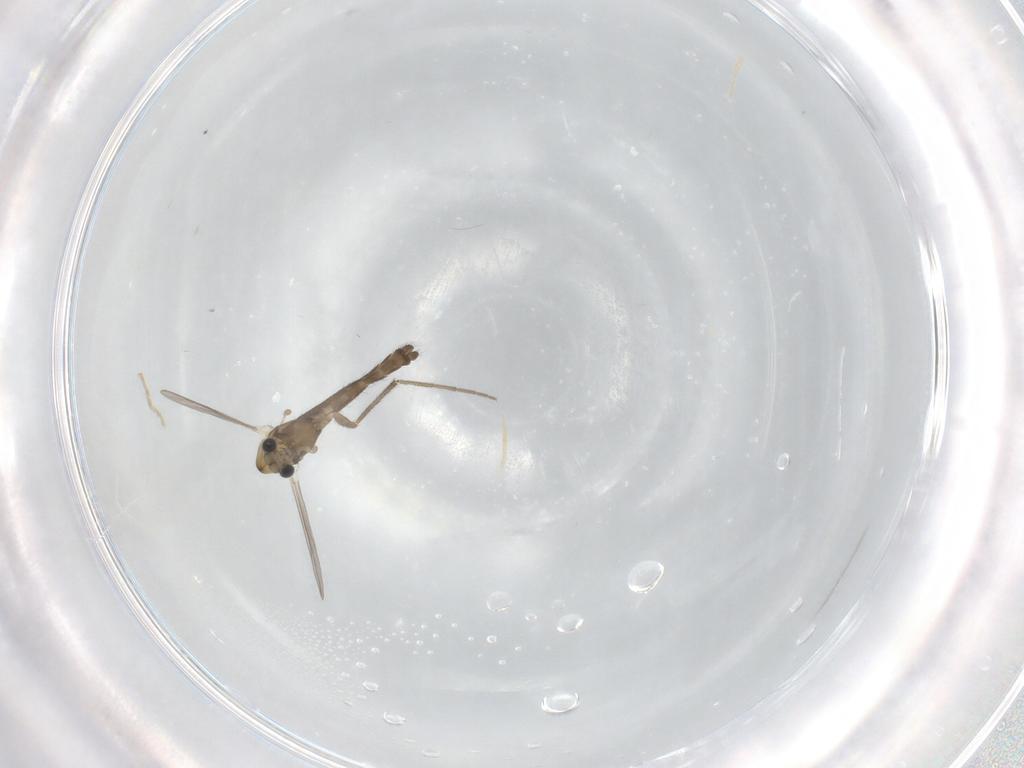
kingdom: Animalia
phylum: Arthropoda
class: Insecta
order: Diptera
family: Chironomidae
